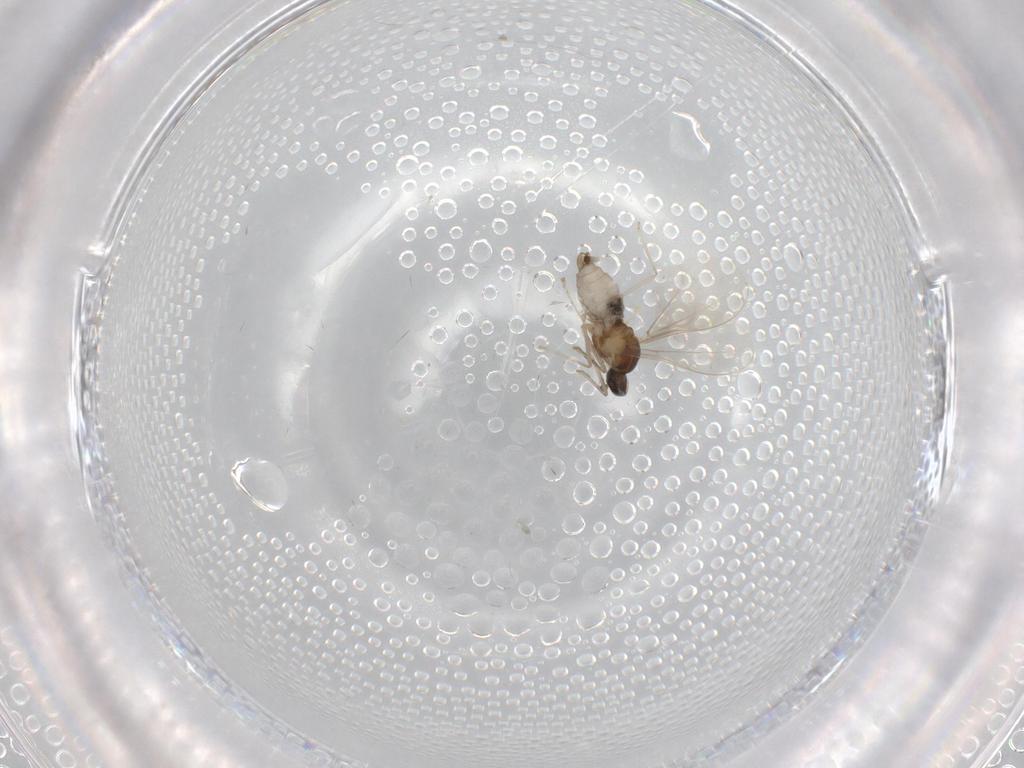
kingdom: Animalia
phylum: Arthropoda
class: Insecta
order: Diptera
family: Cecidomyiidae
